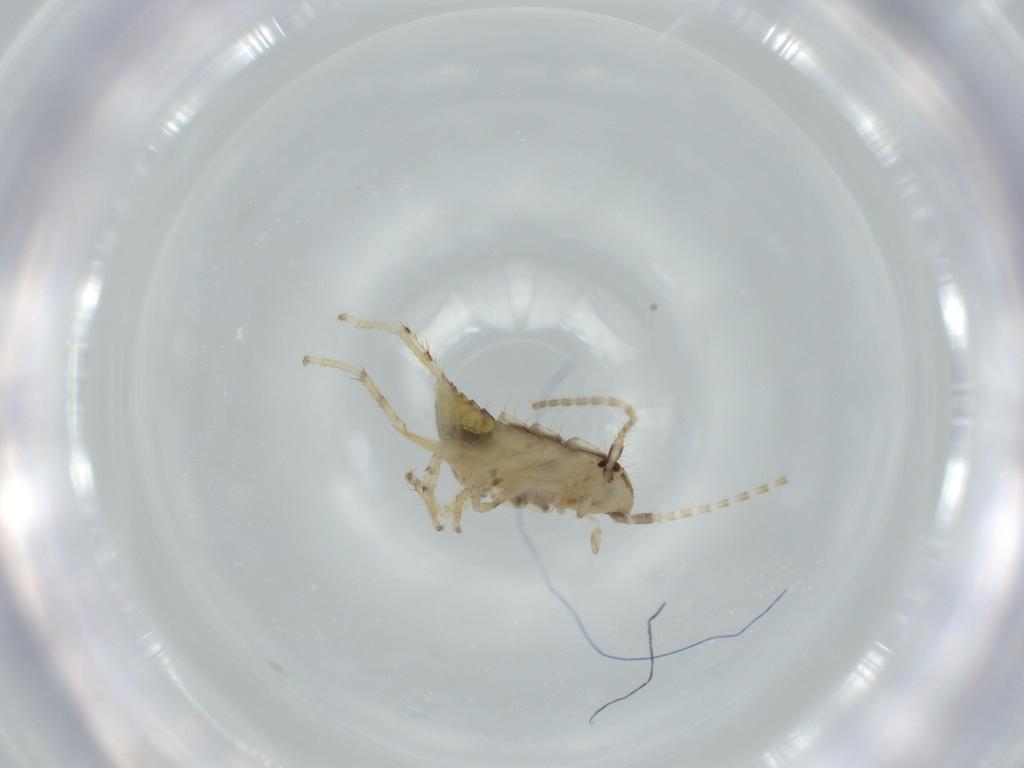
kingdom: Animalia
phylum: Arthropoda
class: Insecta
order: Blattodea
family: Ectobiidae
